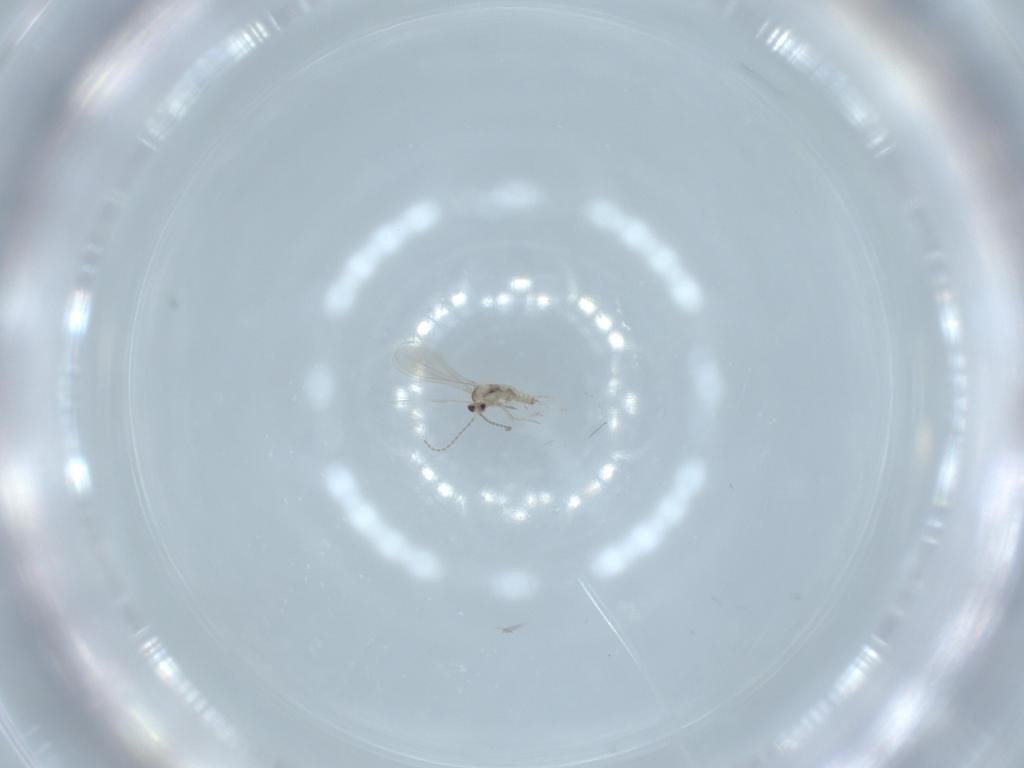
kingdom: Animalia
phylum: Arthropoda
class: Insecta
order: Diptera
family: Cecidomyiidae
